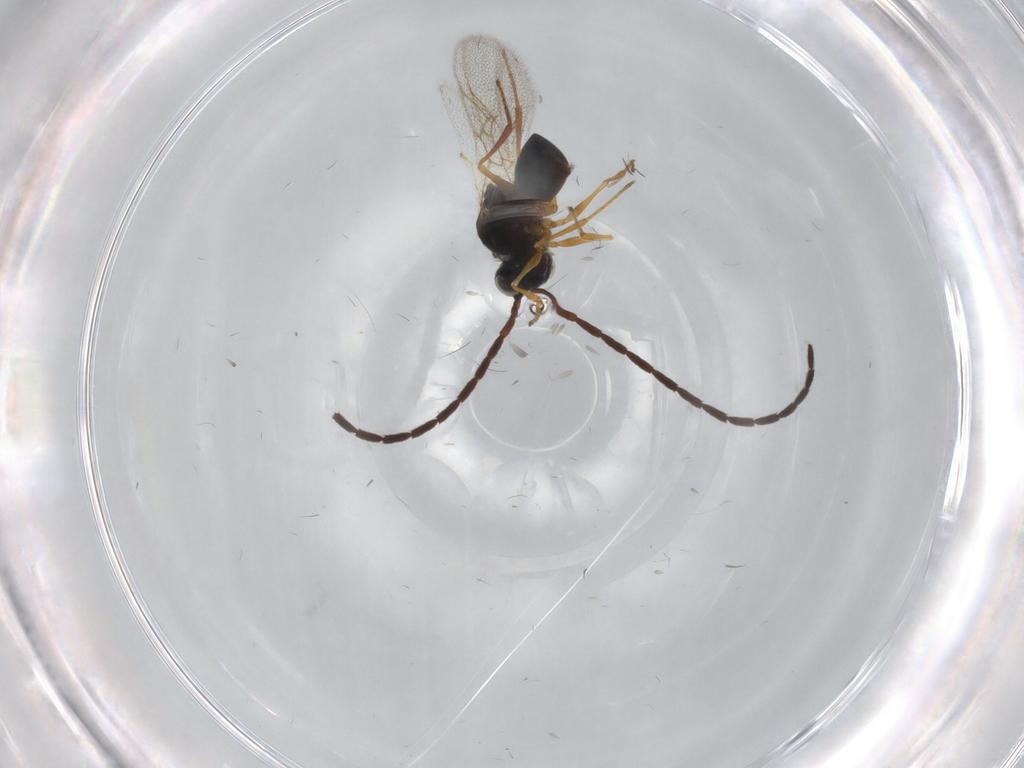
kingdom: Animalia
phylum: Arthropoda
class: Insecta
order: Hymenoptera
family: Figitidae
